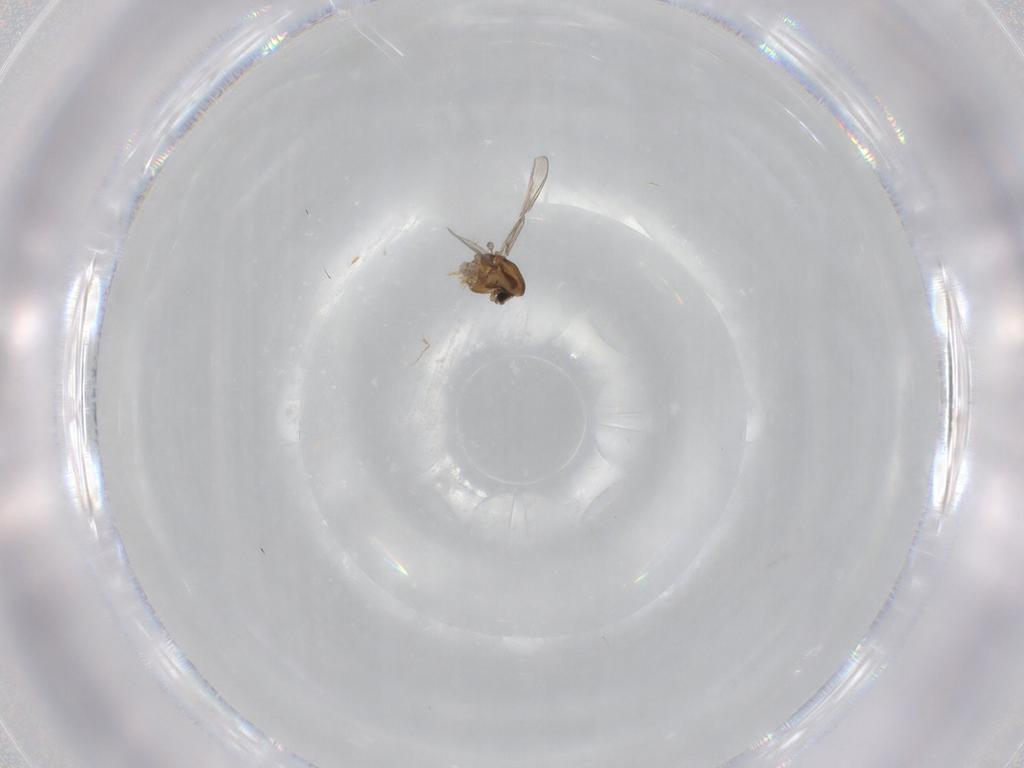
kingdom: Animalia
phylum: Arthropoda
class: Insecta
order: Diptera
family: Chironomidae
